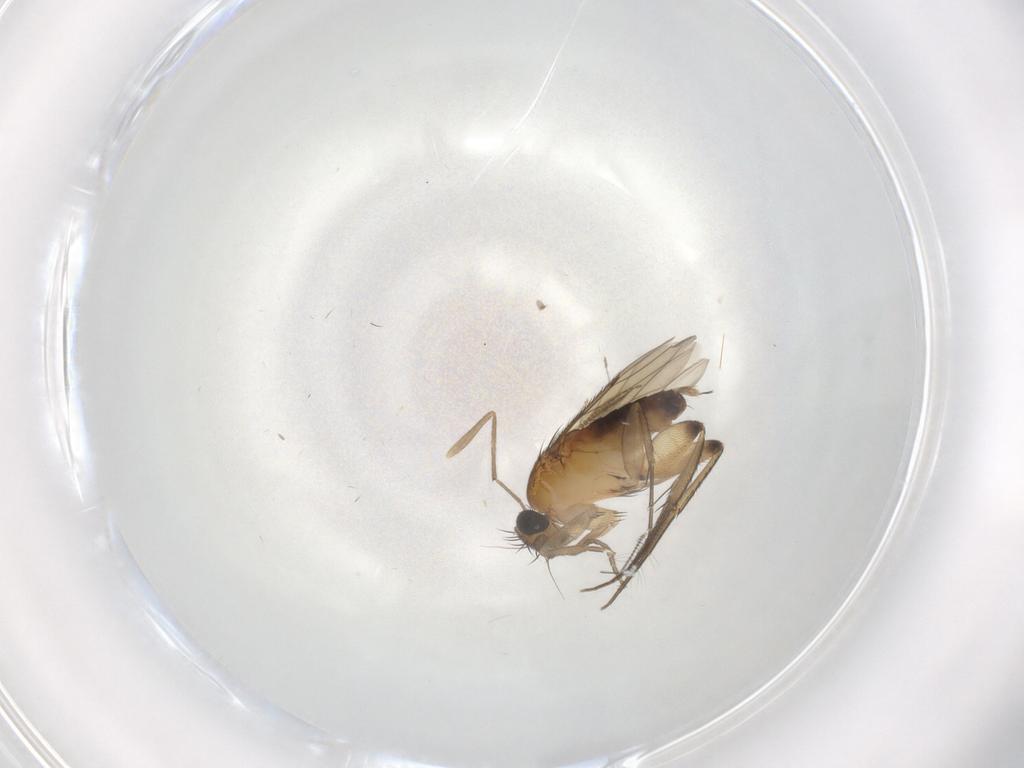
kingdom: Animalia
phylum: Arthropoda
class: Insecta
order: Diptera
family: Phoridae
